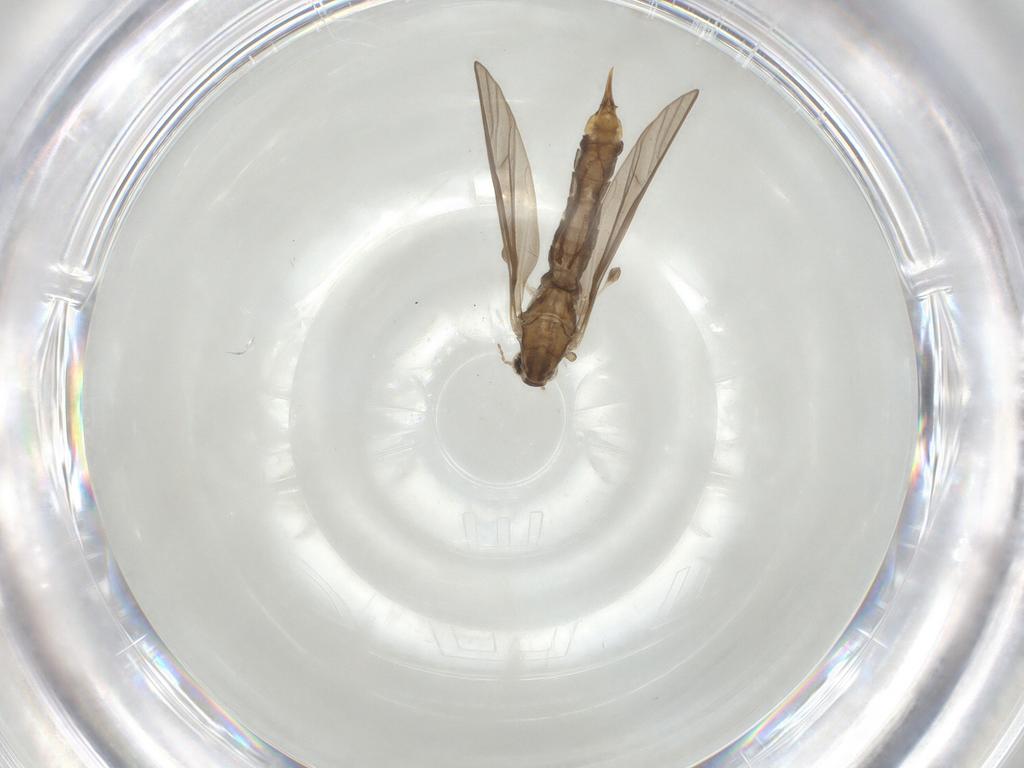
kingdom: Animalia
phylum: Arthropoda
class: Insecta
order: Diptera
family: Limoniidae
